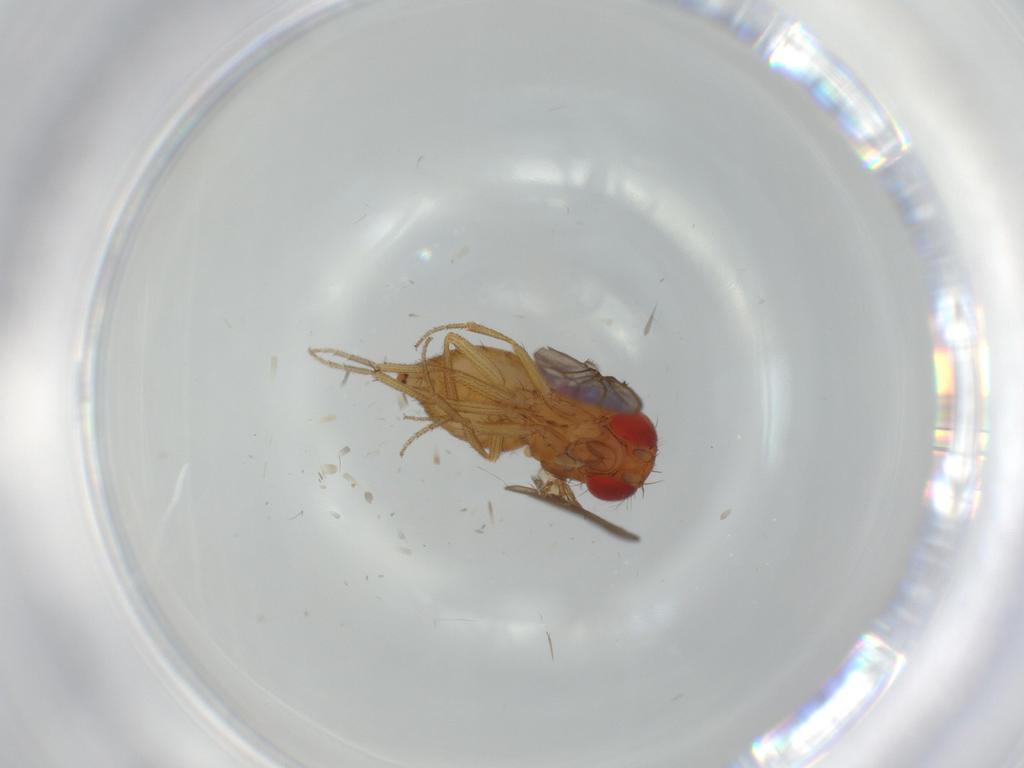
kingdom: Animalia
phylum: Arthropoda
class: Insecta
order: Diptera
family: Drosophilidae
